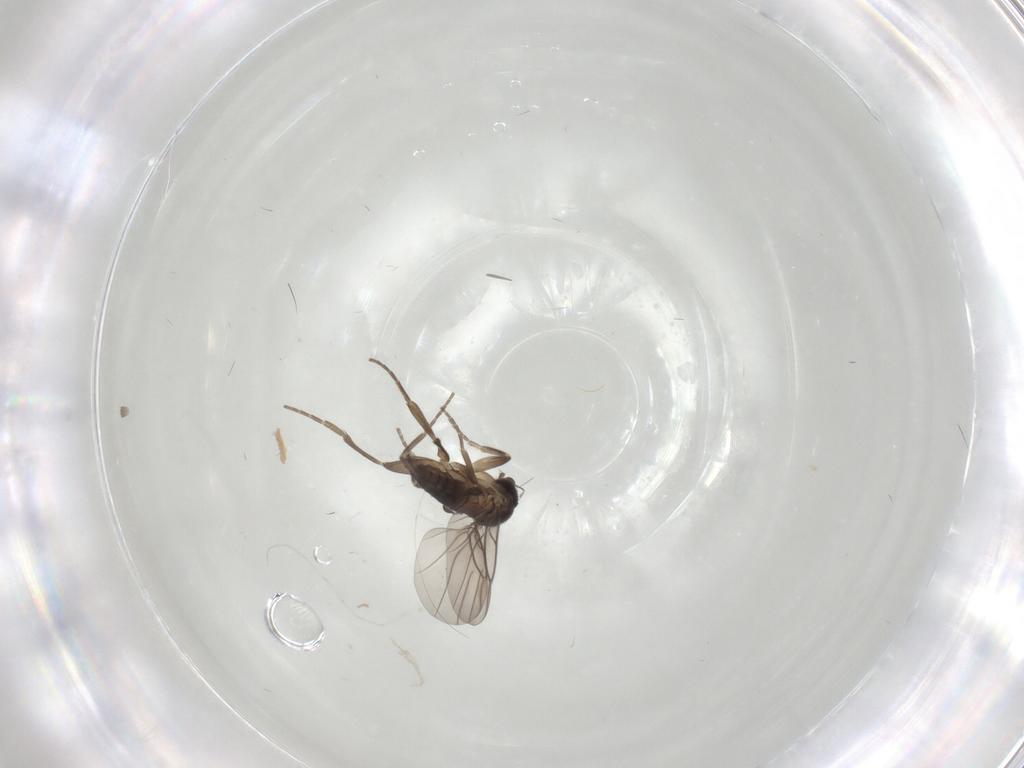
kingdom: Animalia
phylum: Arthropoda
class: Insecta
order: Diptera
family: Phoridae
